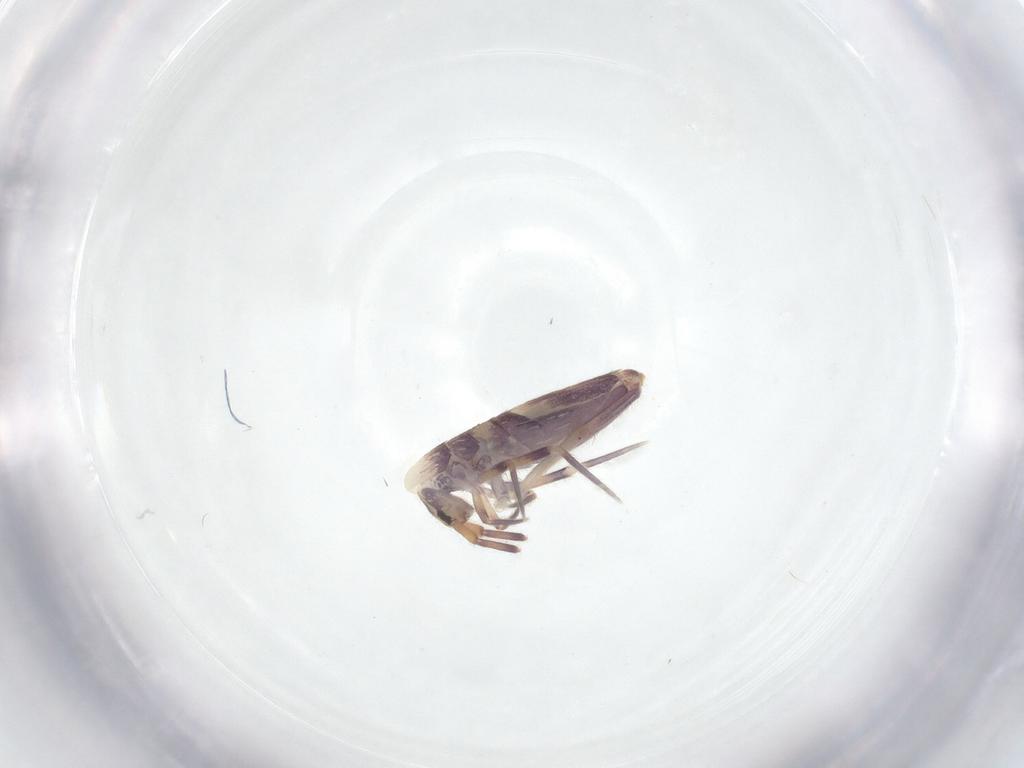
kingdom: Animalia
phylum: Arthropoda
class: Collembola
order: Entomobryomorpha
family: Entomobryidae
